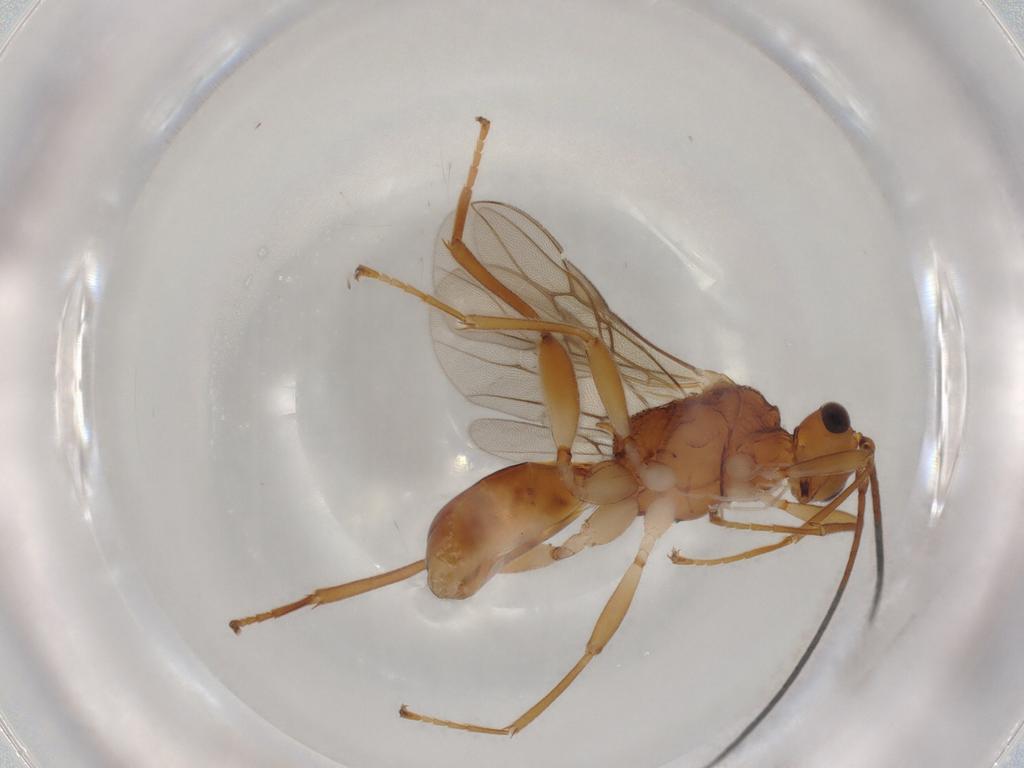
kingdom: Animalia
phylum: Arthropoda
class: Insecta
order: Hymenoptera
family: Braconidae
